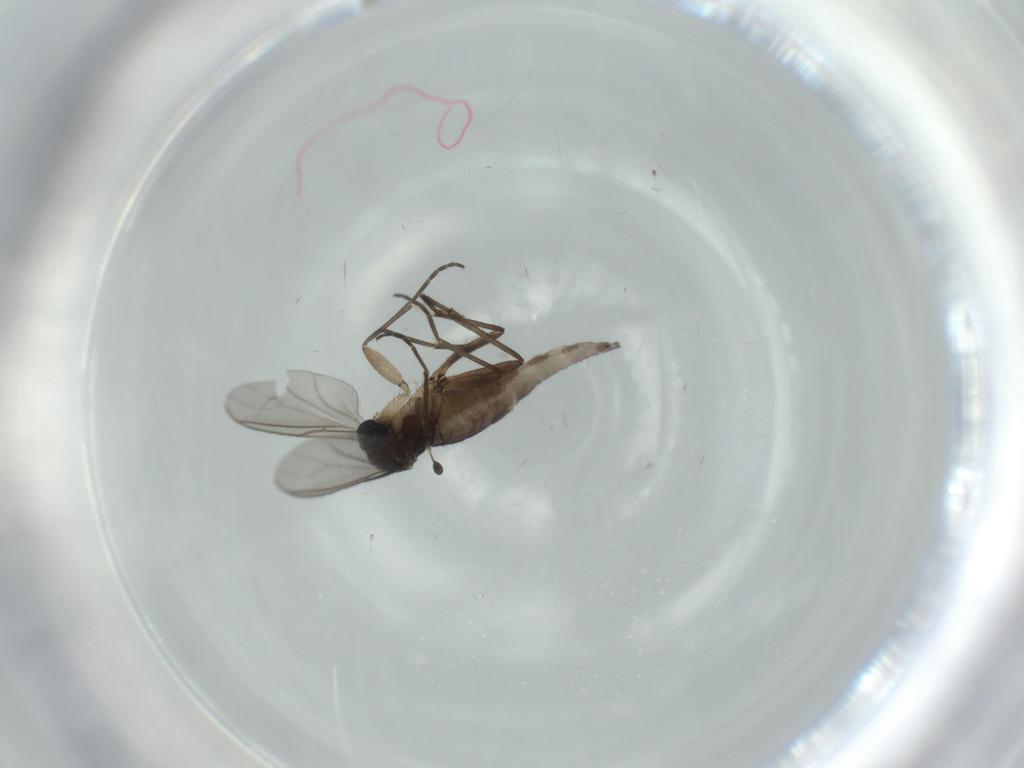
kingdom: Animalia
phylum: Arthropoda
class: Insecta
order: Diptera
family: Sciaridae
